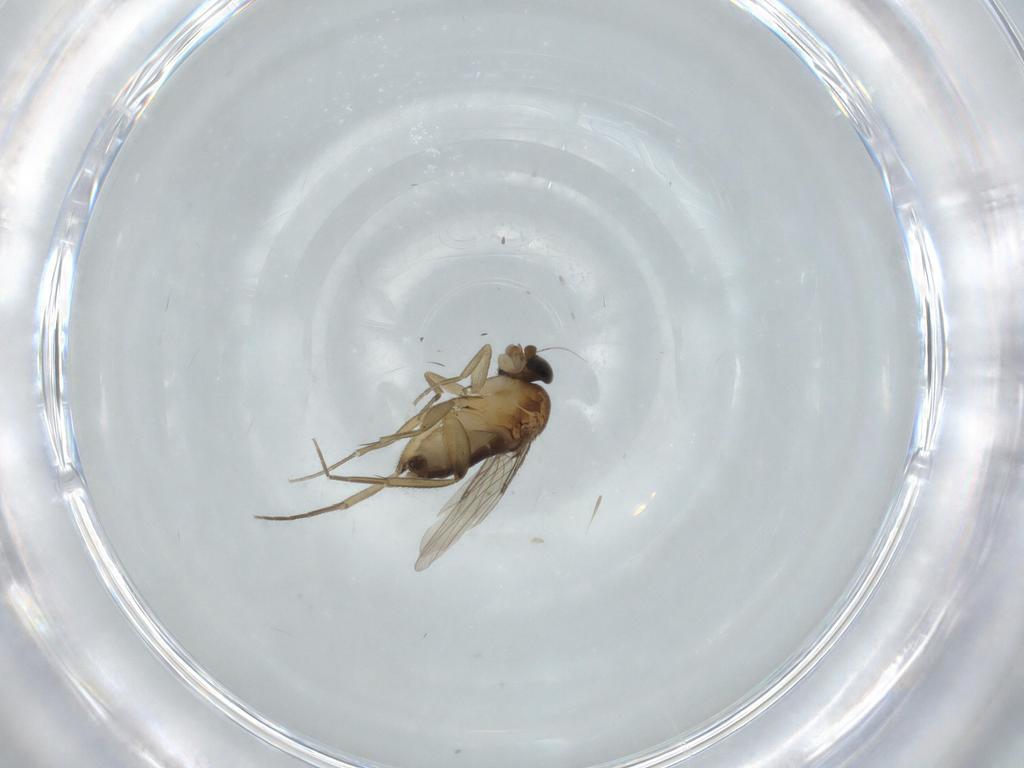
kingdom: Animalia
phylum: Arthropoda
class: Insecta
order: Diptera
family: Phoridae
